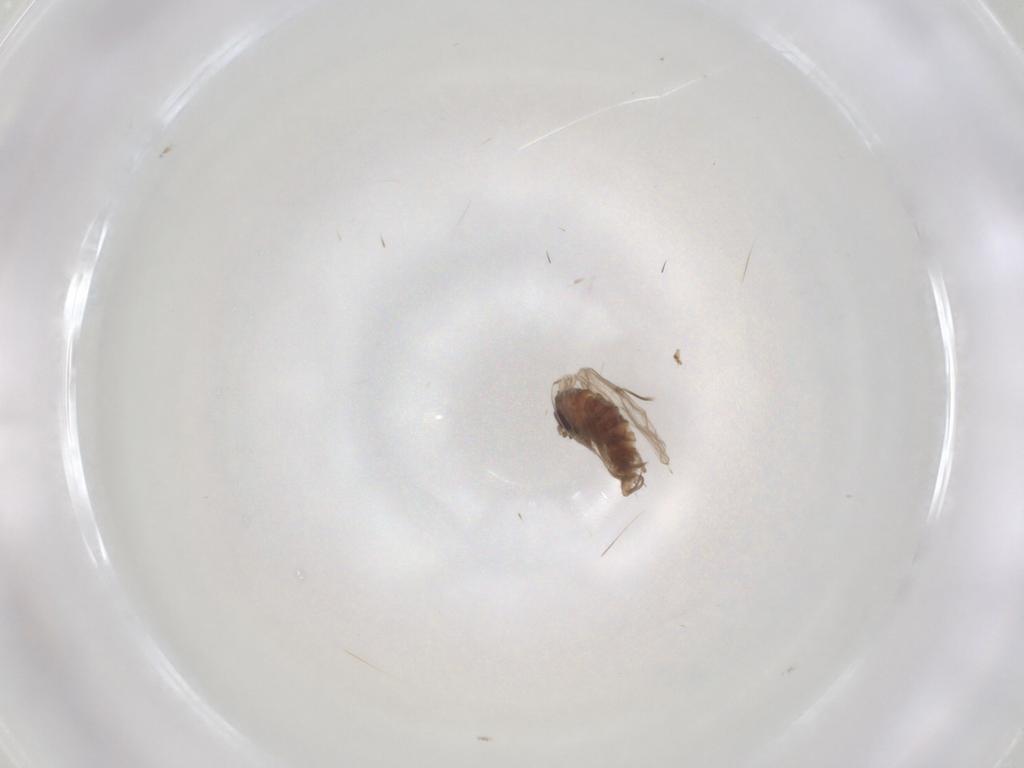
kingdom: Animalia
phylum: Arthropoda
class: Insecta
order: Diptera
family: Psychodidae
